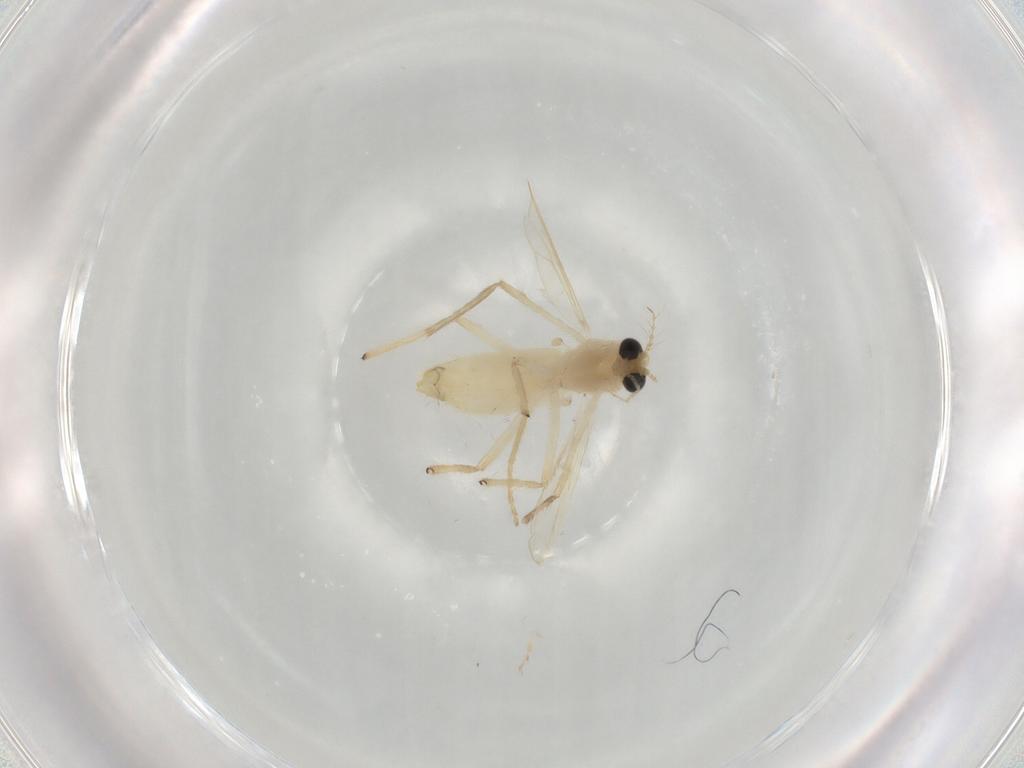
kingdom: Animalia
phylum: Arthropoda
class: Insecta
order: Diptera
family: Chironomidae
